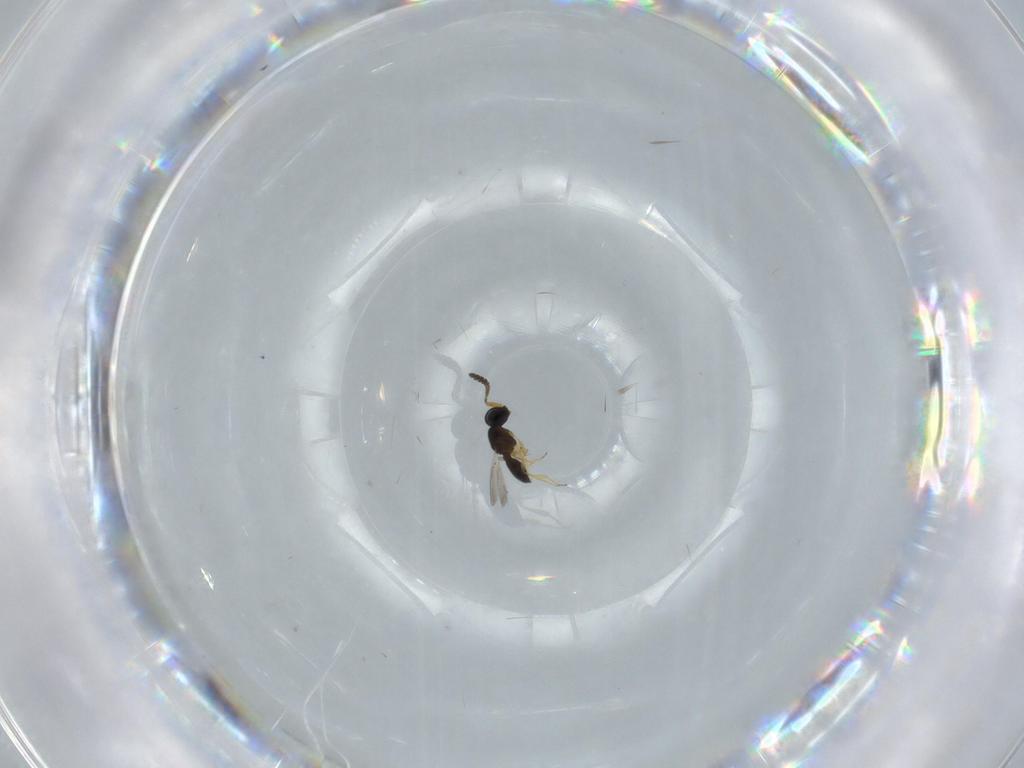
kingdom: Animalia
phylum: Arthropoda
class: Insecta
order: Hymenoptera
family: Scelionidae
